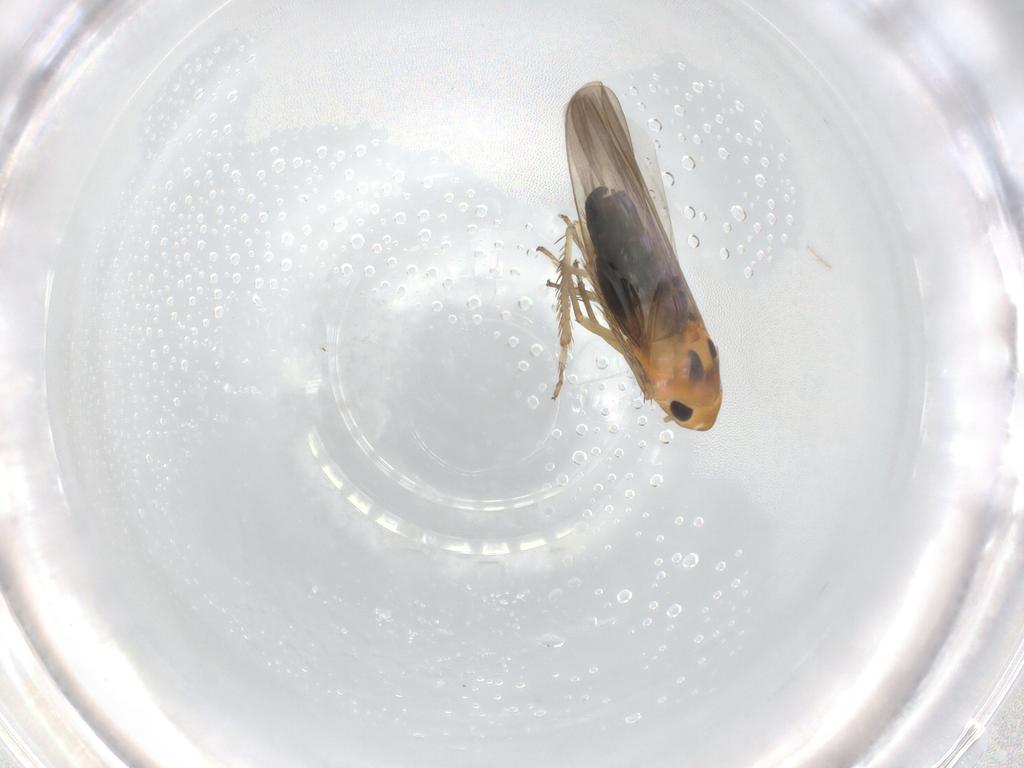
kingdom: Animalia
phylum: Arthropoda
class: Insecta
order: Hemiptera
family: Cicadellidae
